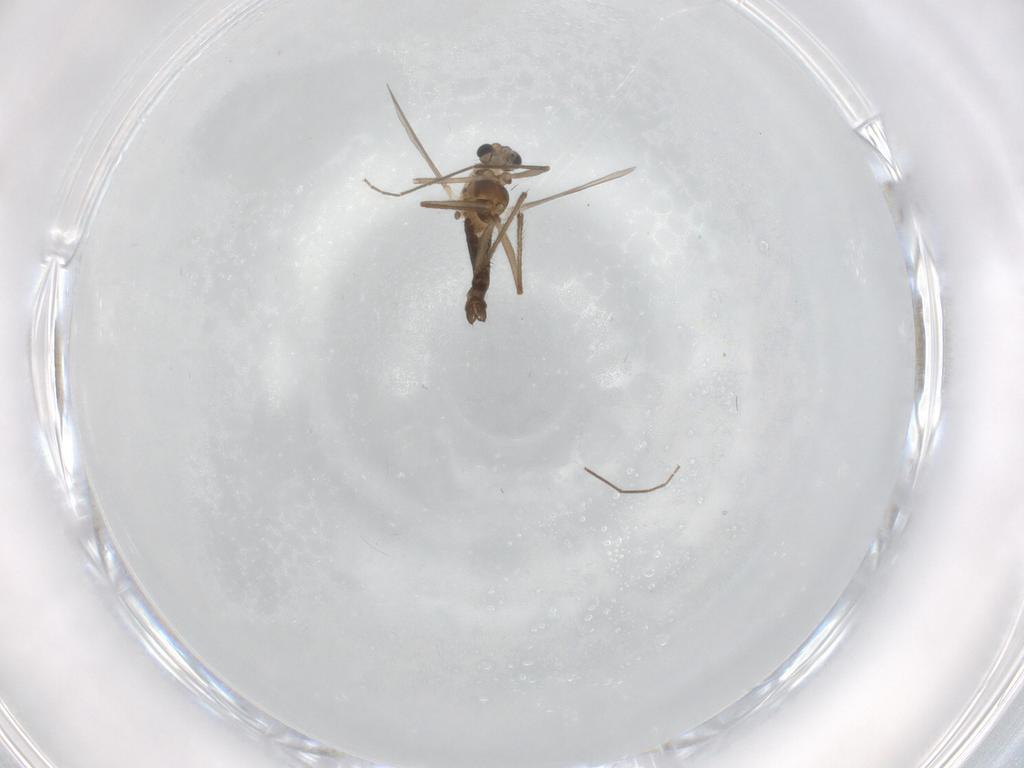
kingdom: Animalia
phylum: Arthropoda
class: Insecta
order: Diptera
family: Chironomidae
